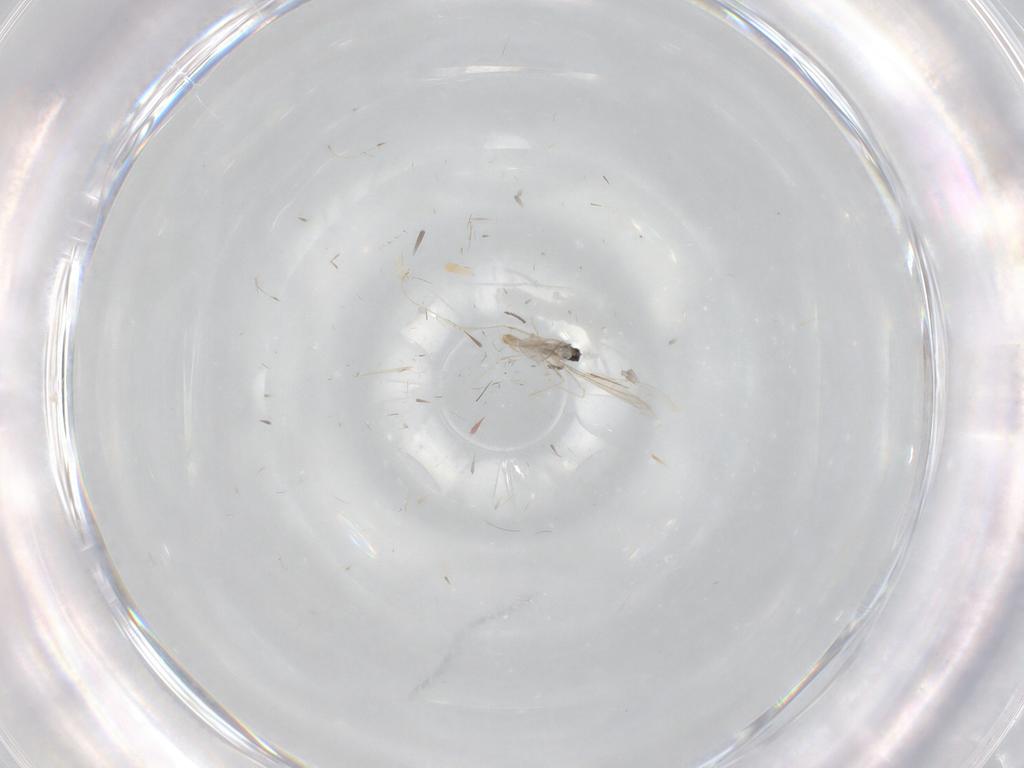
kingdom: Animalia
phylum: Arthropoda
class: Insecta
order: Diptera
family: Sciaridae
